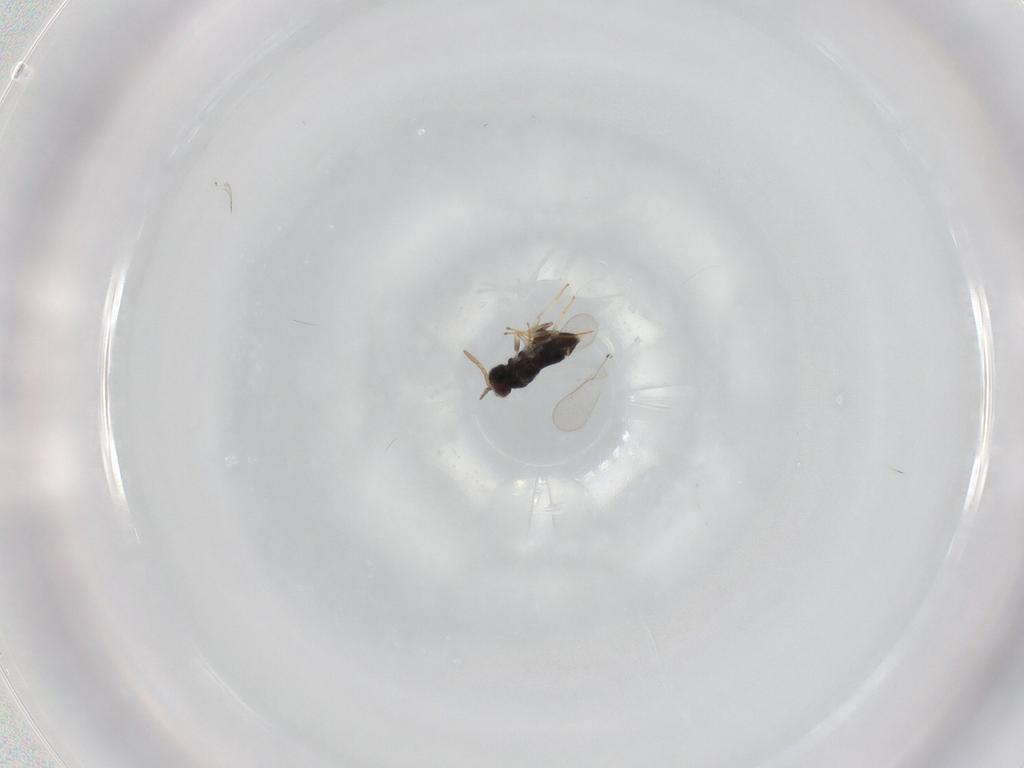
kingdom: Animalia
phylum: Arthropoda
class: Insecta
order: Hymenoptera
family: Aphelinidae
